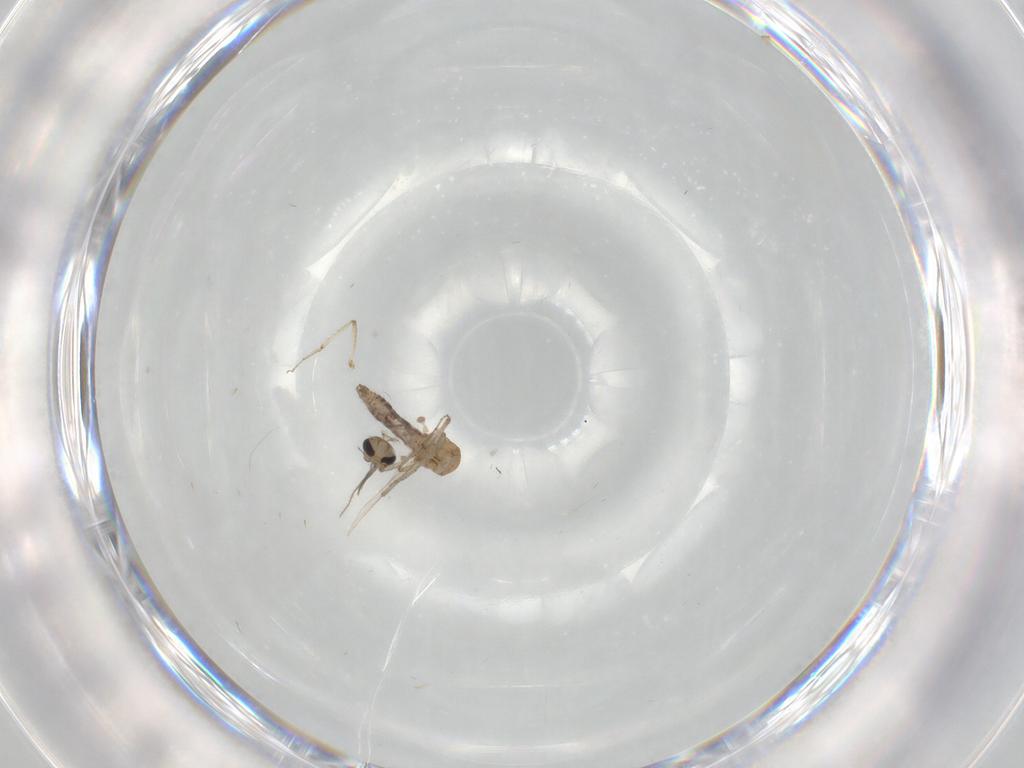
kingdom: Animalia
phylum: Arthropoda
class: Insecta
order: Diptera
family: Ceratopogonidae
